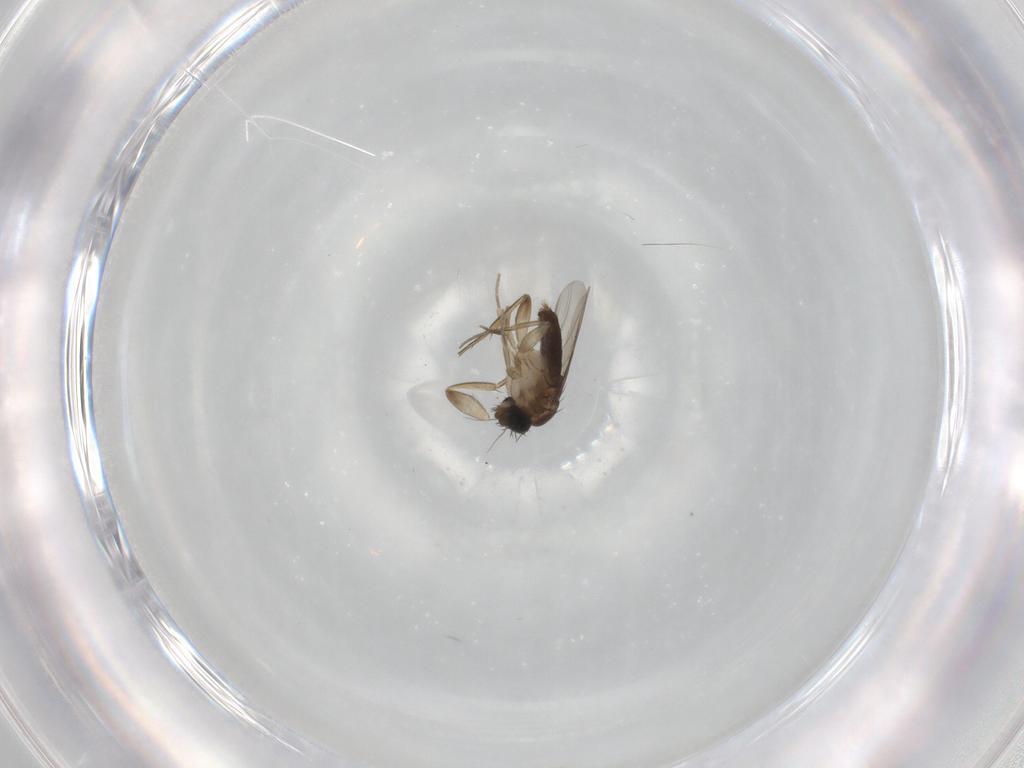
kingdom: Animalia
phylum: Arthropoda
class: Insecta
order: Diptera
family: Phoridae
